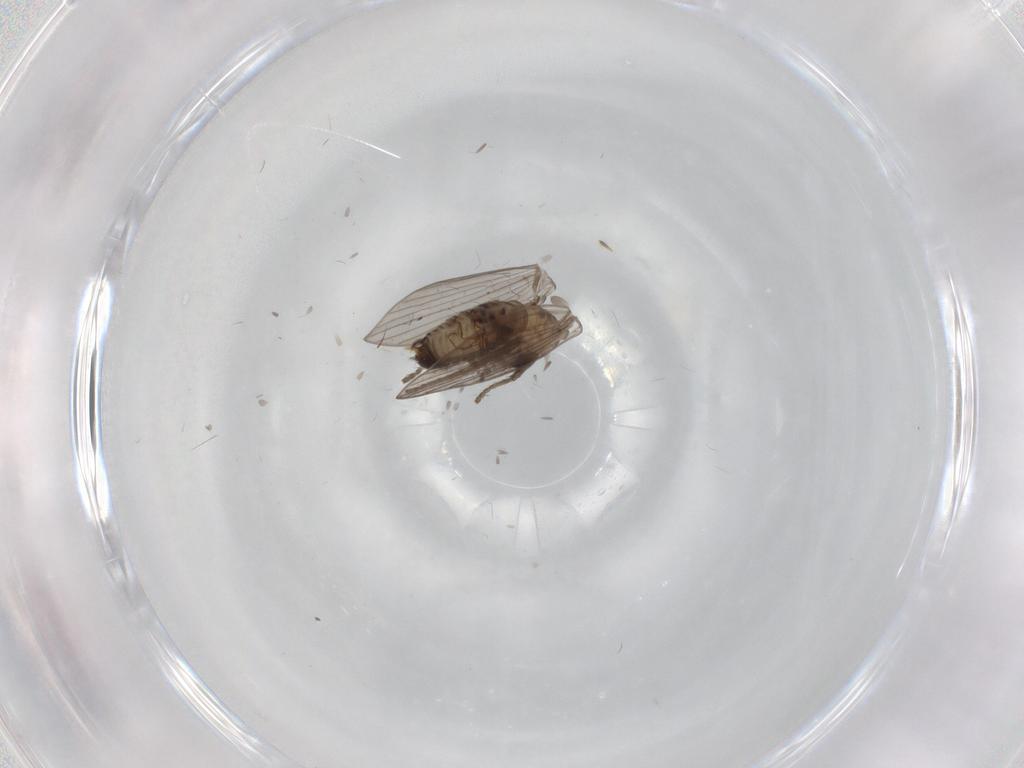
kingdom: Animalia
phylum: Arthropoda
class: Insecta
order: Diptera
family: Psychodidae
